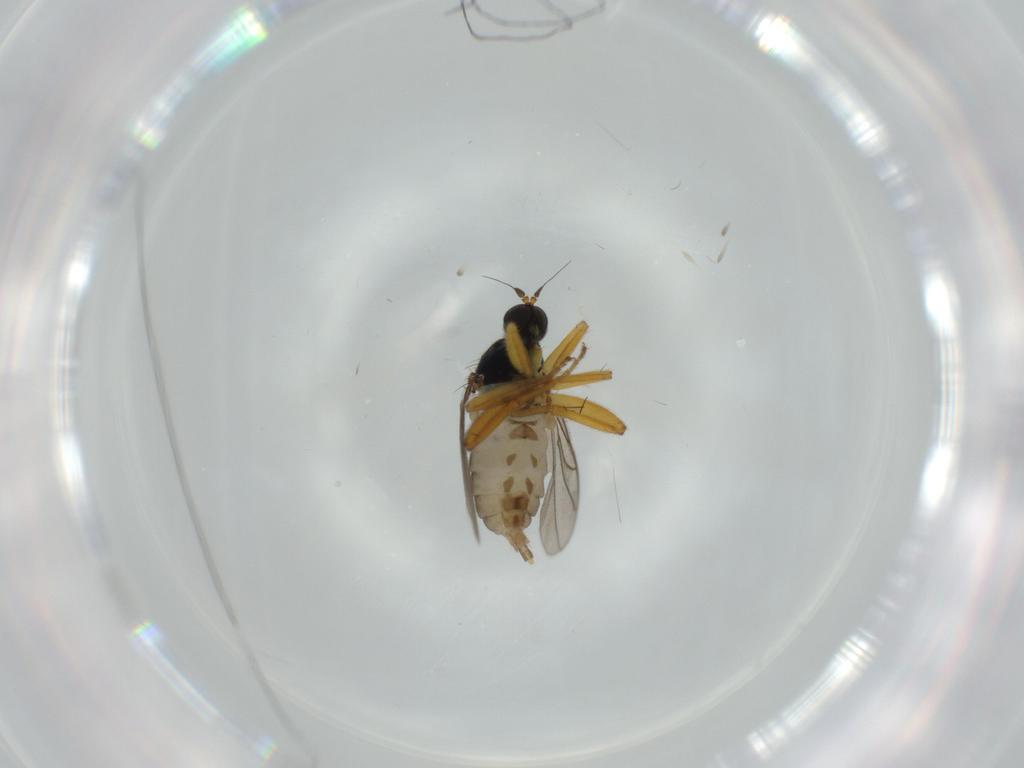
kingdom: Animalia
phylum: Arthropoda
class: Insecta
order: Diptera
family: Hybotidae
